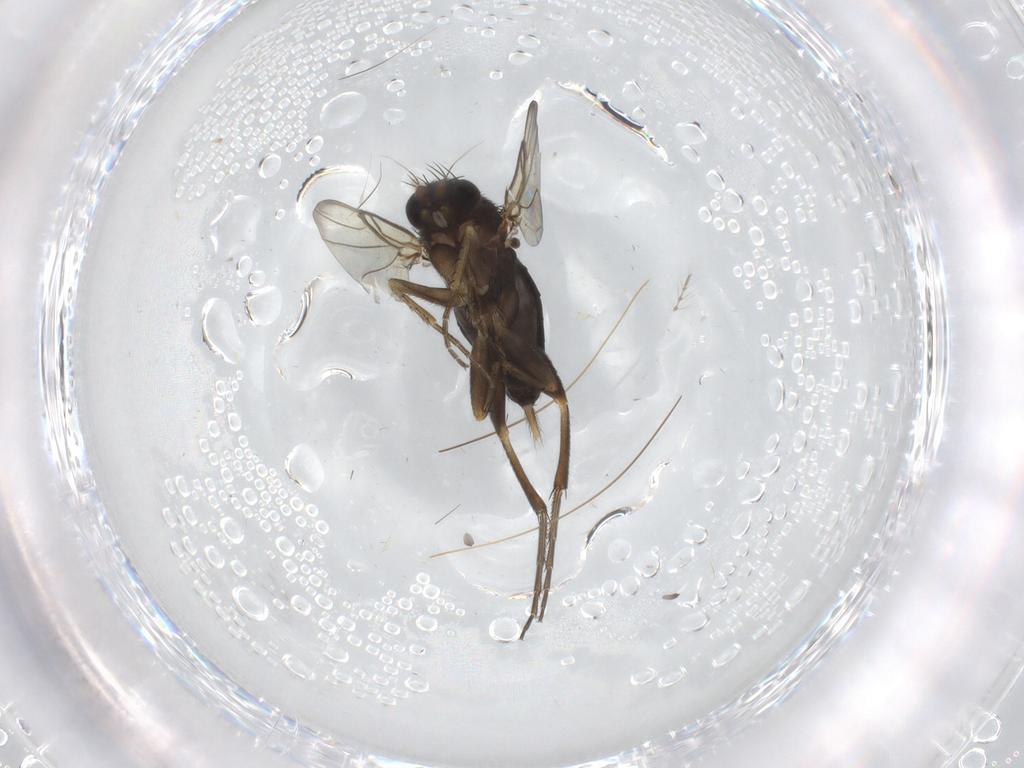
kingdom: Animalia
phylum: Arthropoda
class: Insecta
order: Diptera
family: Phoridae
